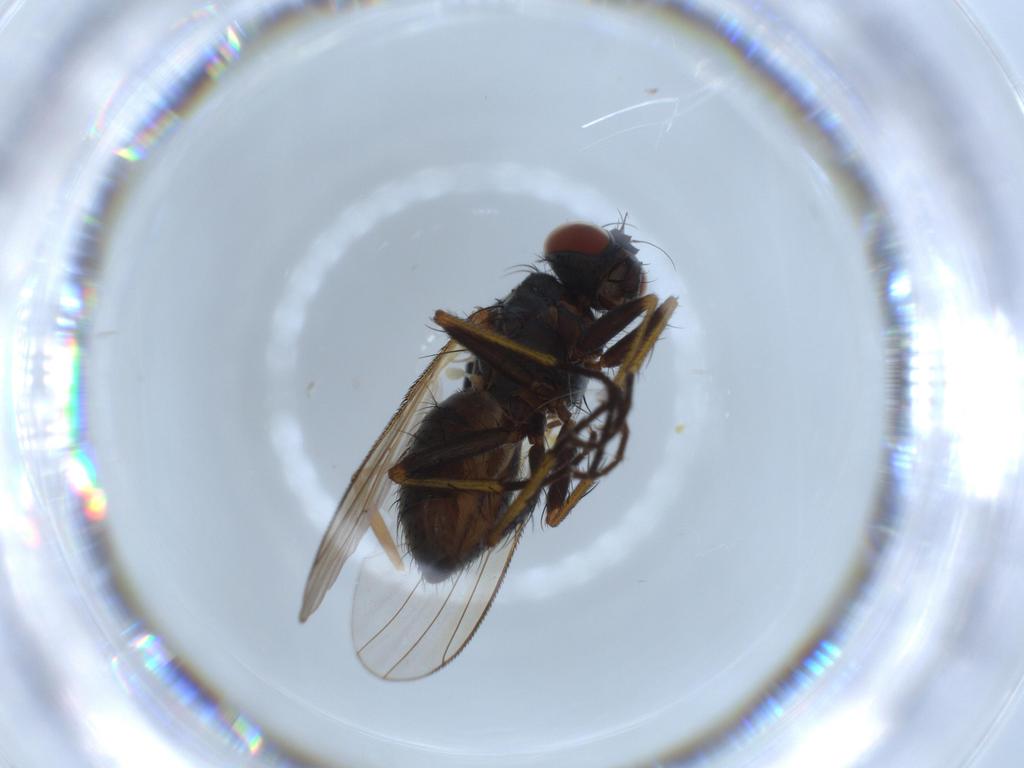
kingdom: Animalia
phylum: Arthropoda
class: Insecta
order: Diptera
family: Sciaridae
